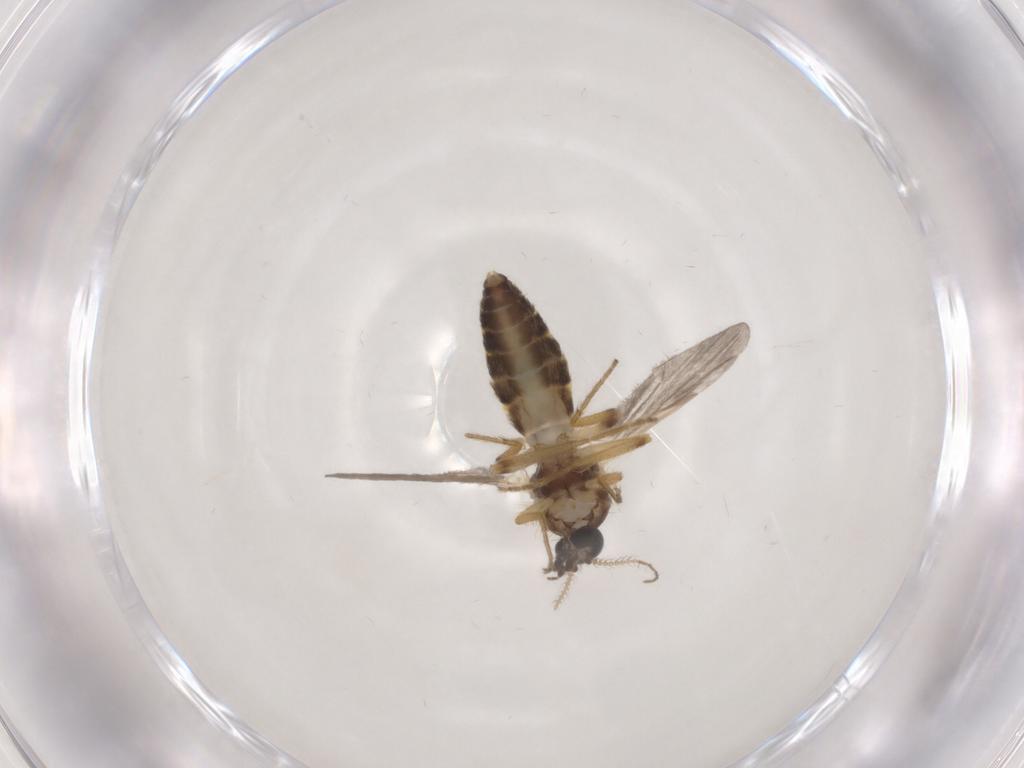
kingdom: Animalia
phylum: Arthropoda
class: Insecta
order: Diptera
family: Ceratopogonidae
